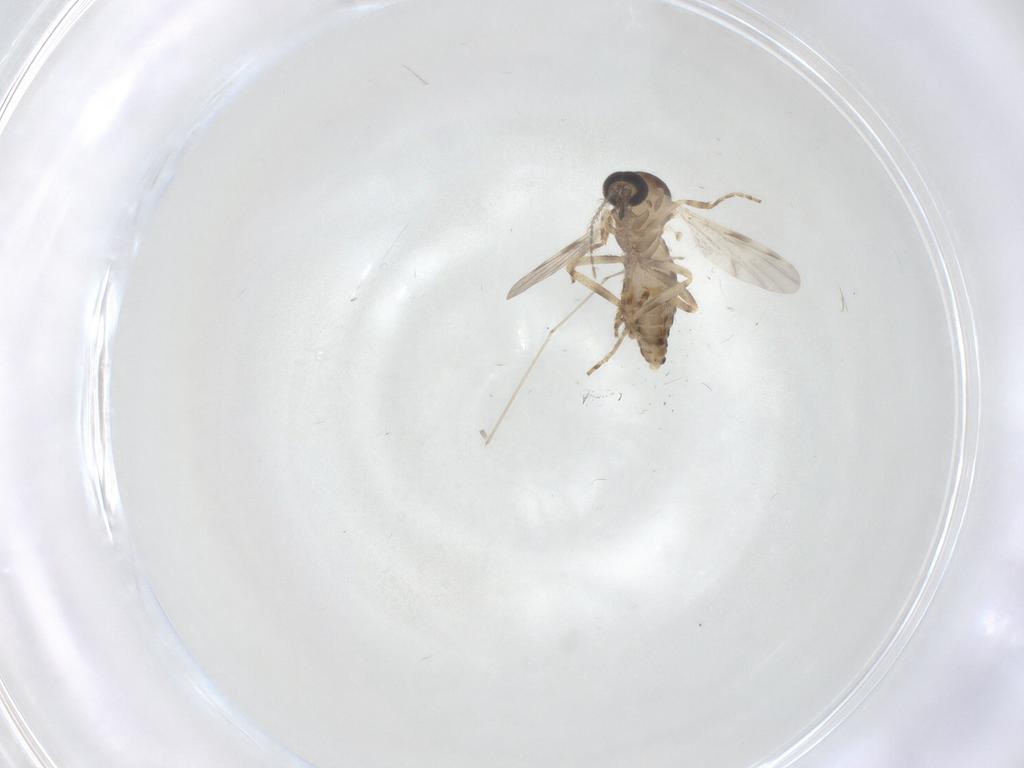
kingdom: Animalia
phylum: Arthropoda
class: Insecta
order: Diptera
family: Ceratopogonidae
